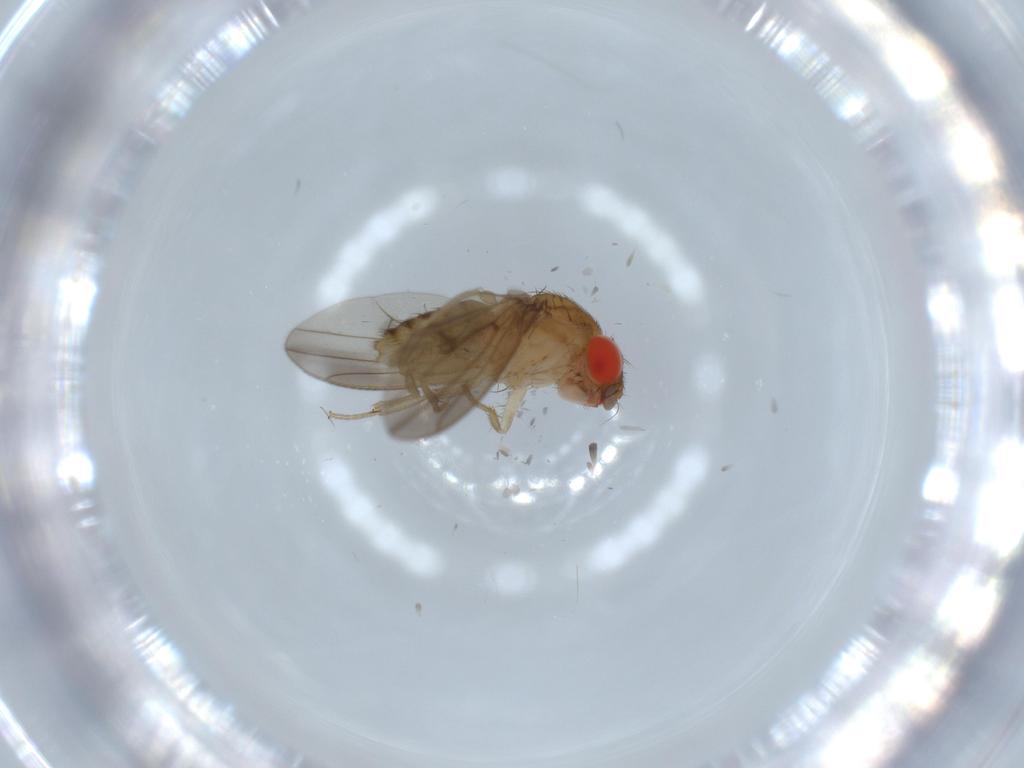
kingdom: Animalia
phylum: Arthropoda
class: Insecta
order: Diptera
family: Drosophilidae
